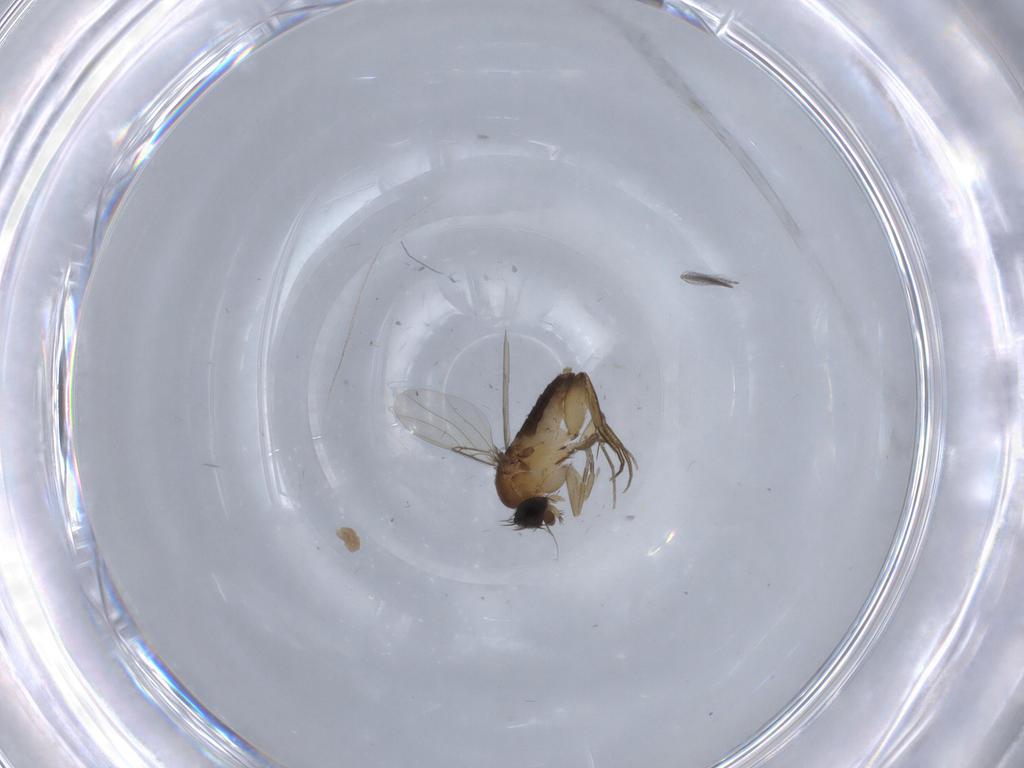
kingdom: Animalia
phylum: Arthropoda
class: Insecta
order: Diptera
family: Phoridae
